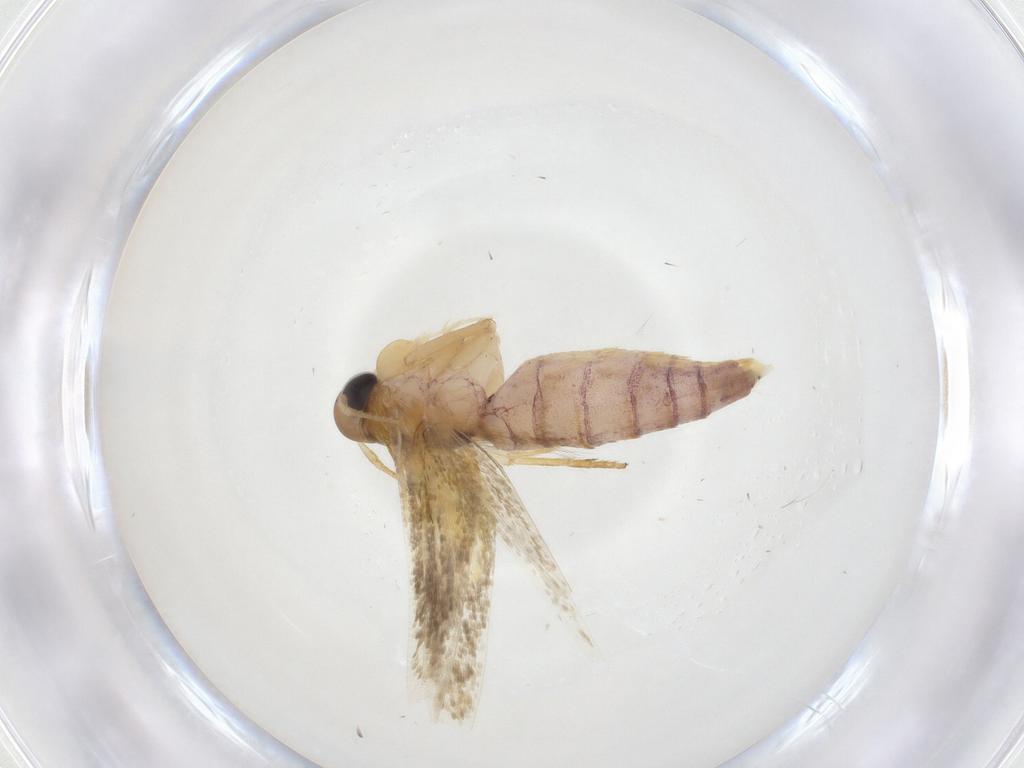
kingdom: Animalia
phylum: Arthropoda
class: Insecta
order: Lepidoptera
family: Stathmopodidae
